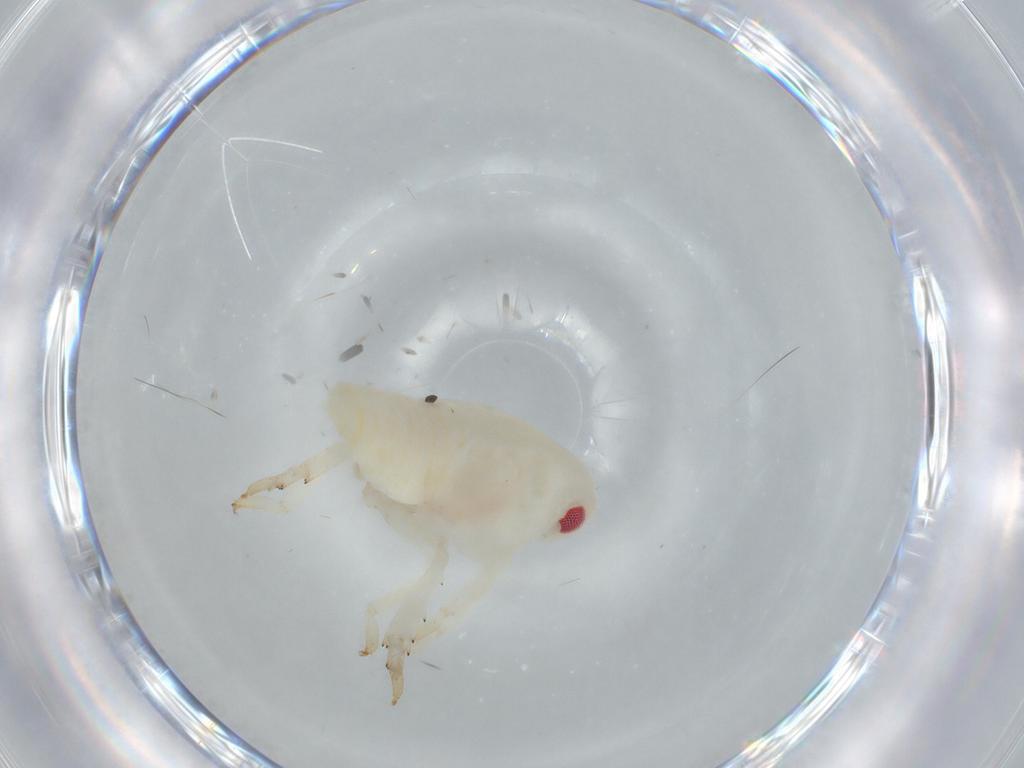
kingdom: Animalia
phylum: Arthropoda
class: Insecta
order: Hemiptera
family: Flatidae
